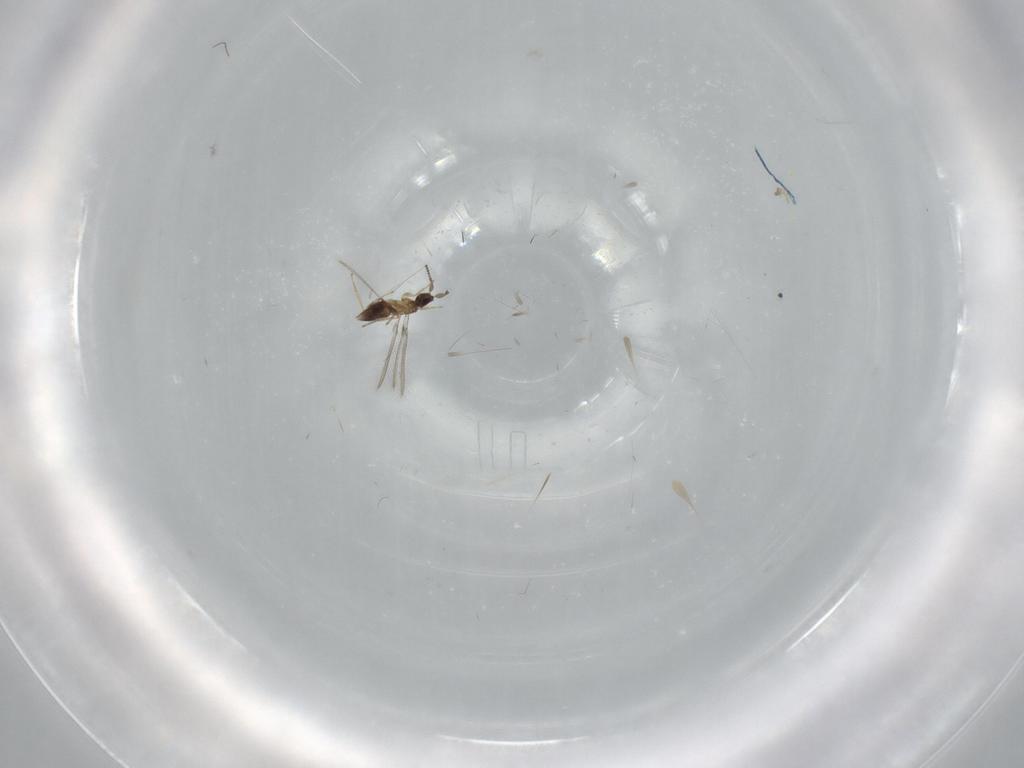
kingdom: Animalia
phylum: Arthropoda
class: Insecta
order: Hymenoptera
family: Mymaridae
